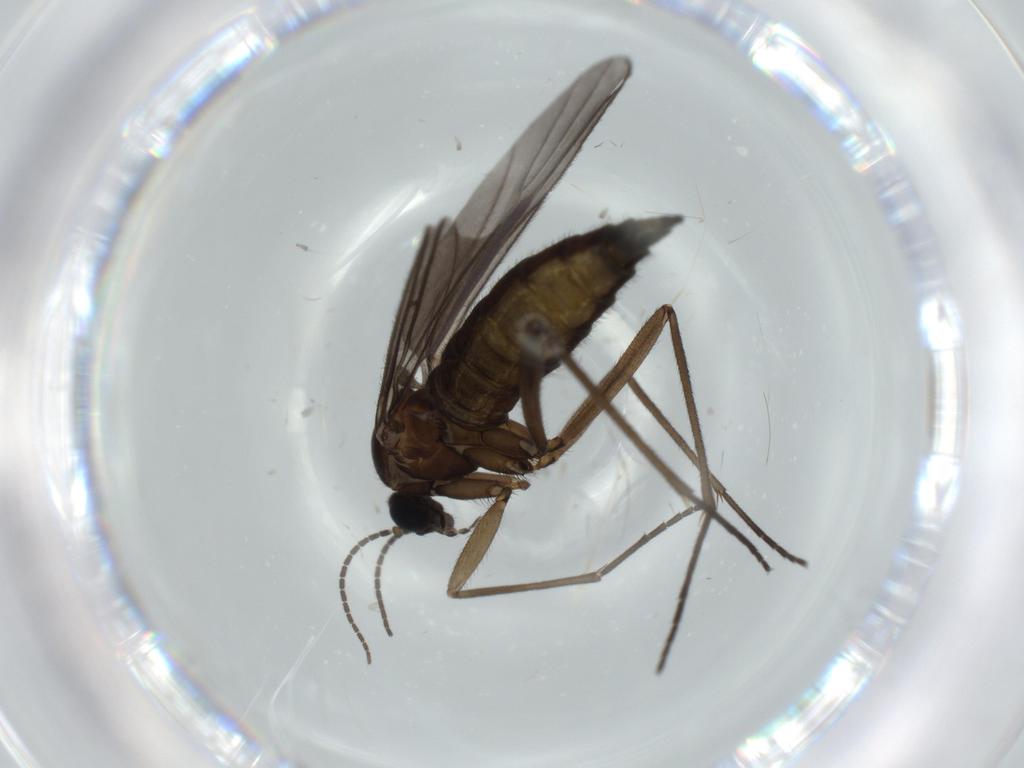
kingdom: Animalia
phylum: Arthropoda
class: Insecta
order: Diptera
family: Sciaridae
